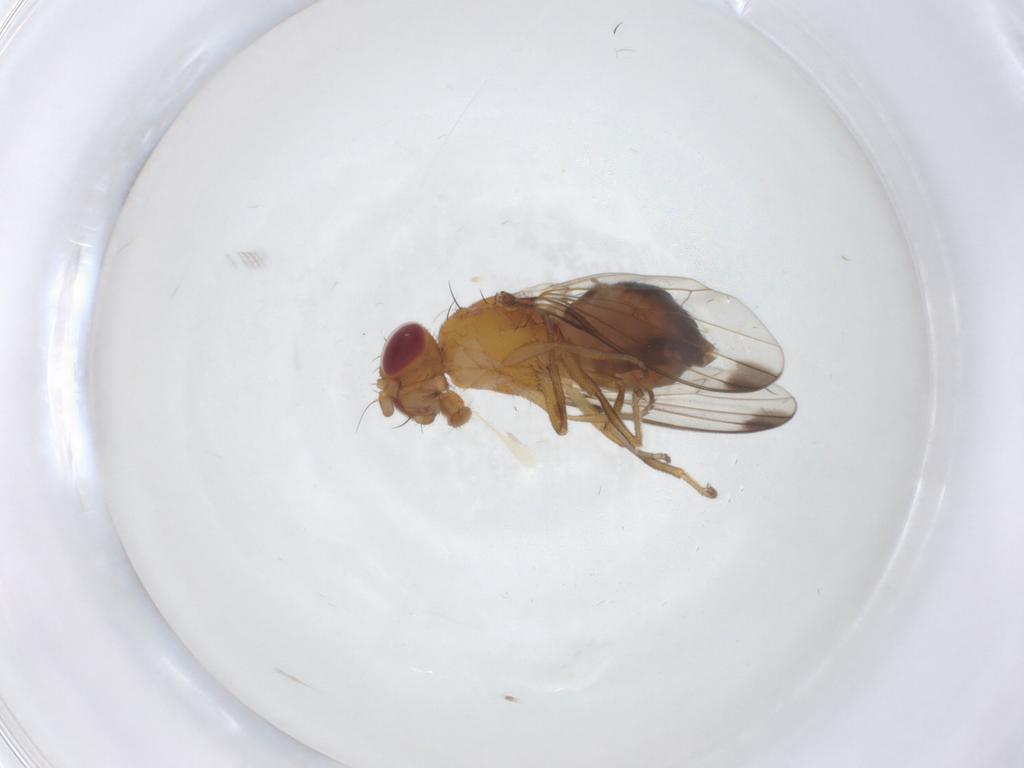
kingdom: Animalia
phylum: Arthropoda
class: Insecta
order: Diptera
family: Piophilidae
